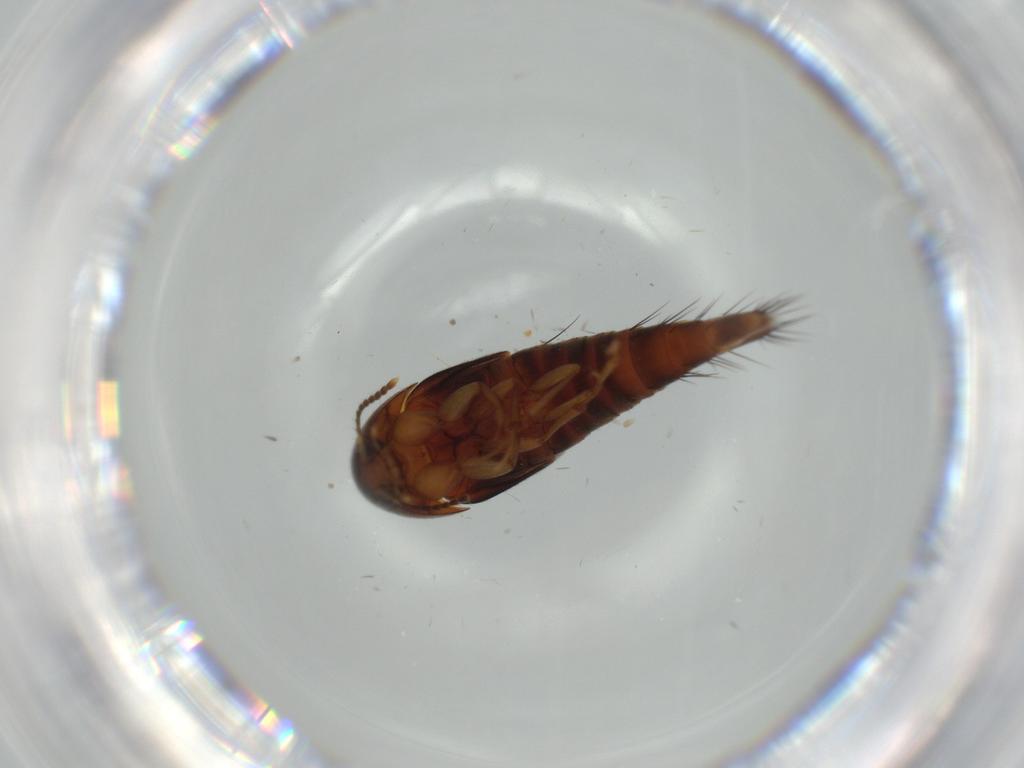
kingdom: Animalia
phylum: Arthropoda
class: Insecta
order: Coleoptera
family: Staphylinidae
